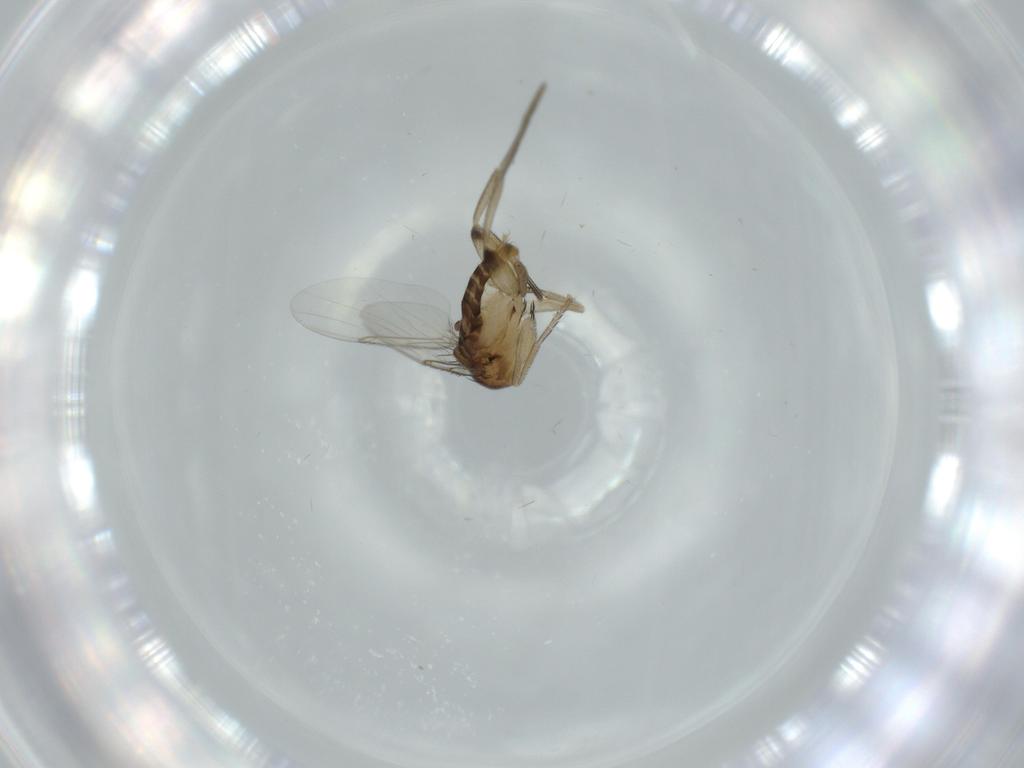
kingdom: Animalia
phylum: Arthropoda
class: Insecta
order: Diptera
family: Phoridae
